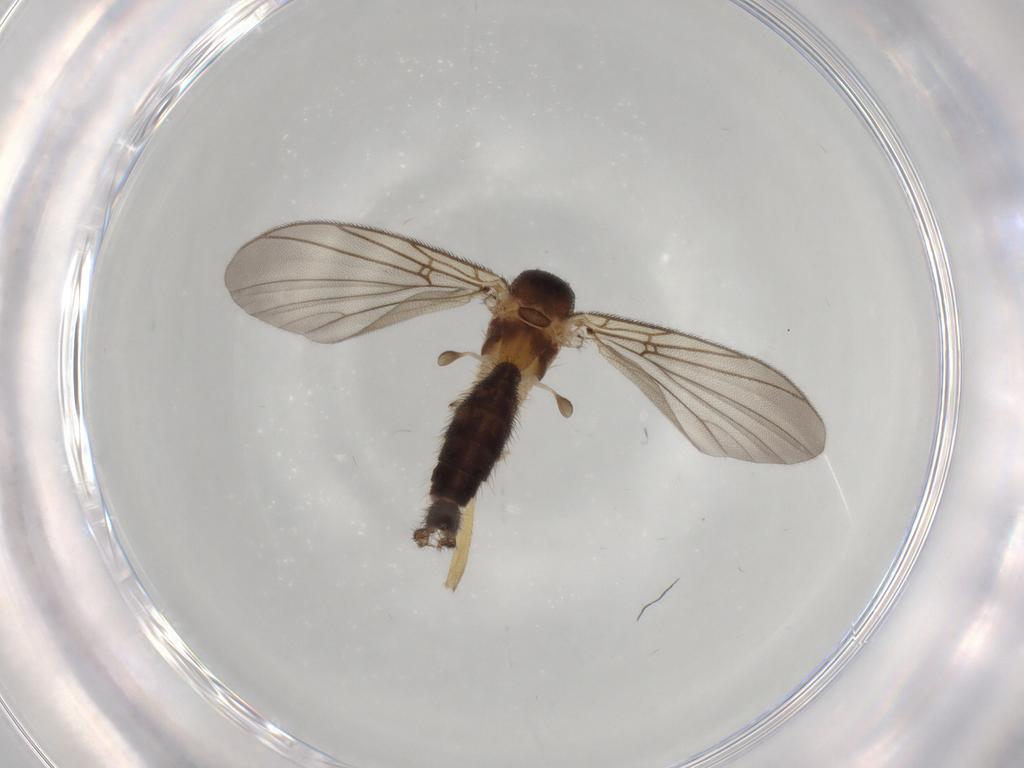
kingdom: Animalia
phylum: Arthropoda
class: Insecta
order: Diptera
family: Mycetophilidae
